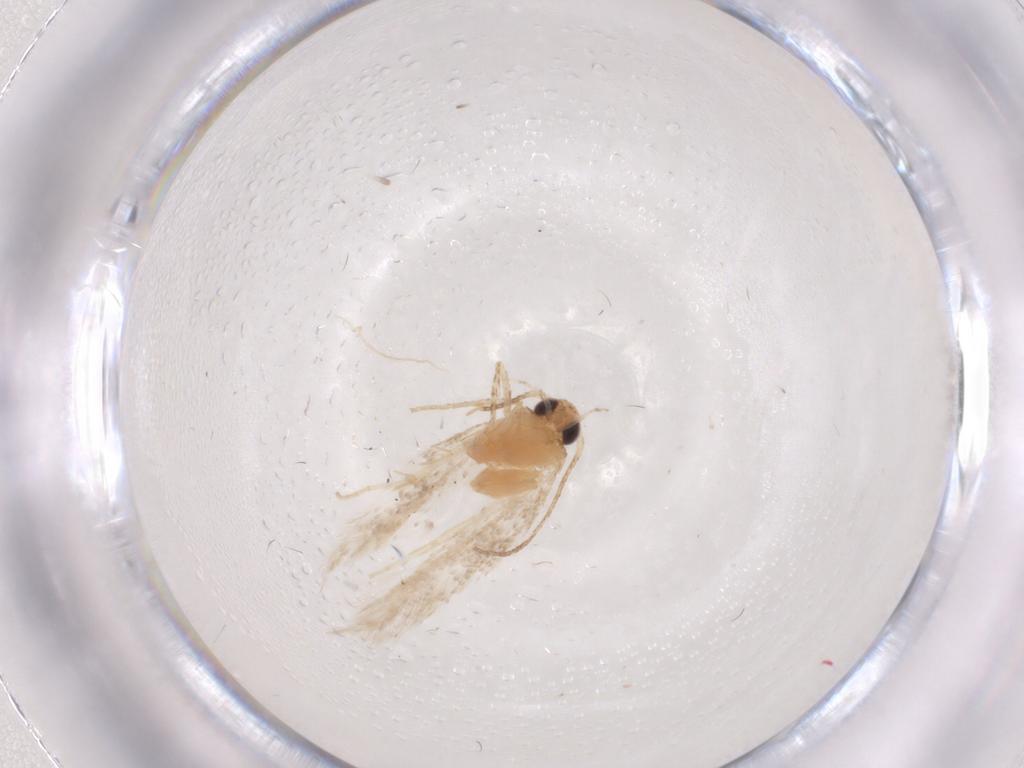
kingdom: Animalia
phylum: Arthropoda
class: Insecta
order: Lepidoptera
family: Gelechiidae
